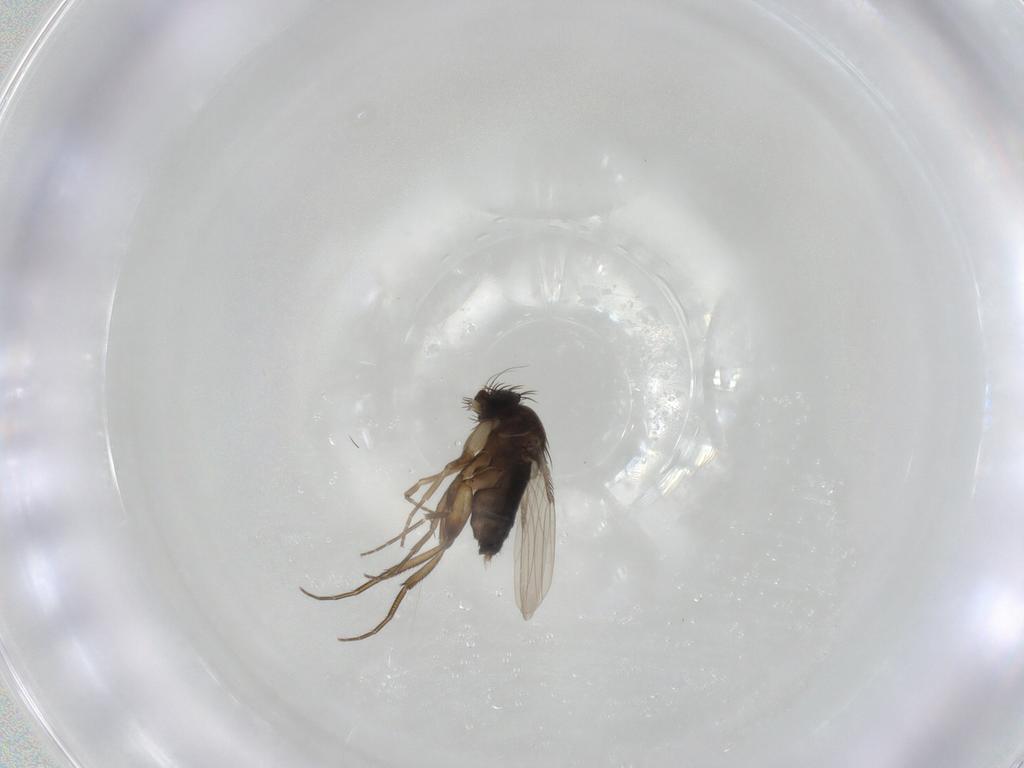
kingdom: Animalia
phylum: Arthropoda
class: Insecta
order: Diptera
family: Phoridae
